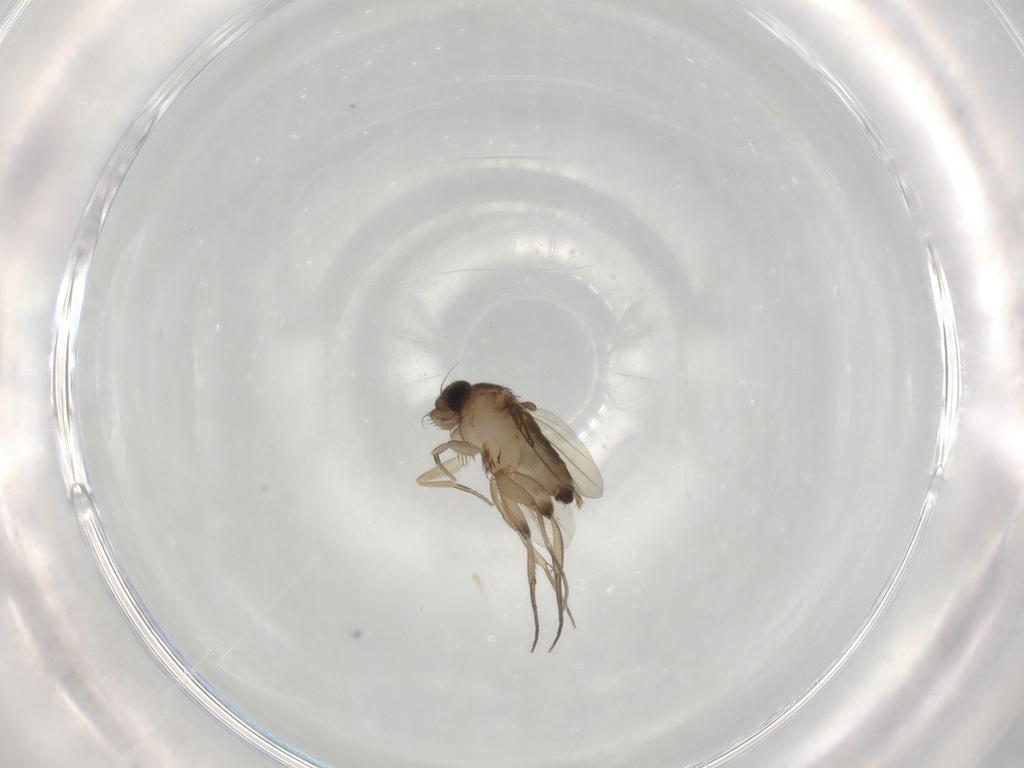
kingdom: Animalia
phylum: Arthropoda
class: Insecta
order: Diptera
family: Phoridae
